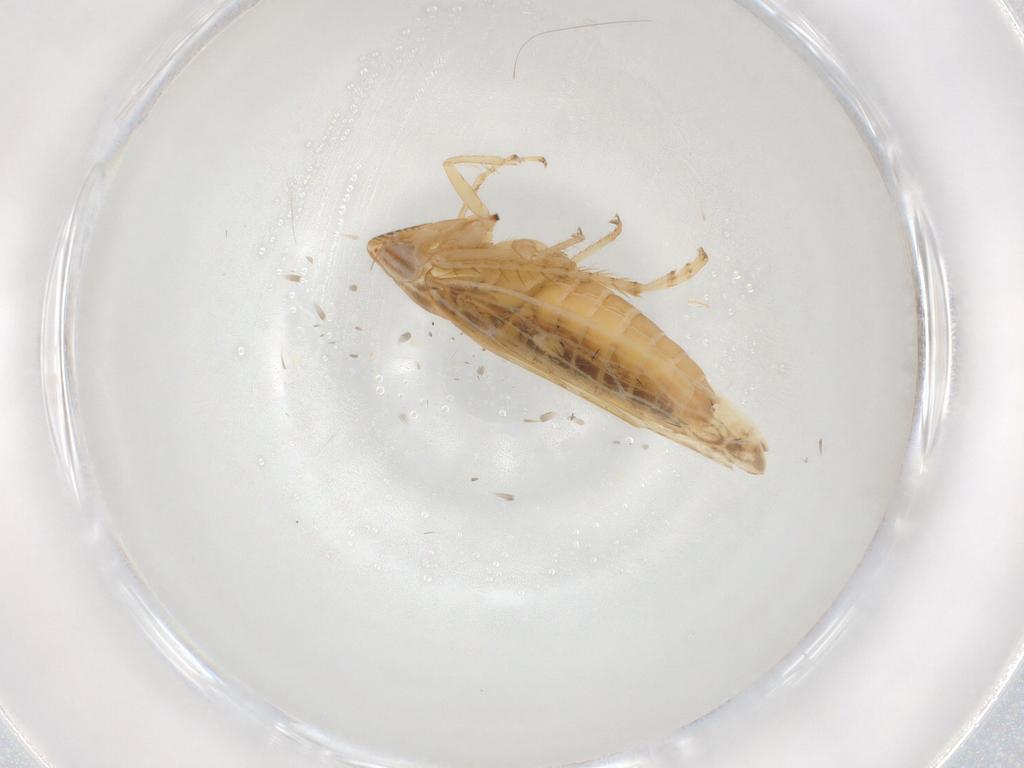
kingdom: Animalia
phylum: Arthropoda
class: Insecta
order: Hemiptera
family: Cicadellidae
